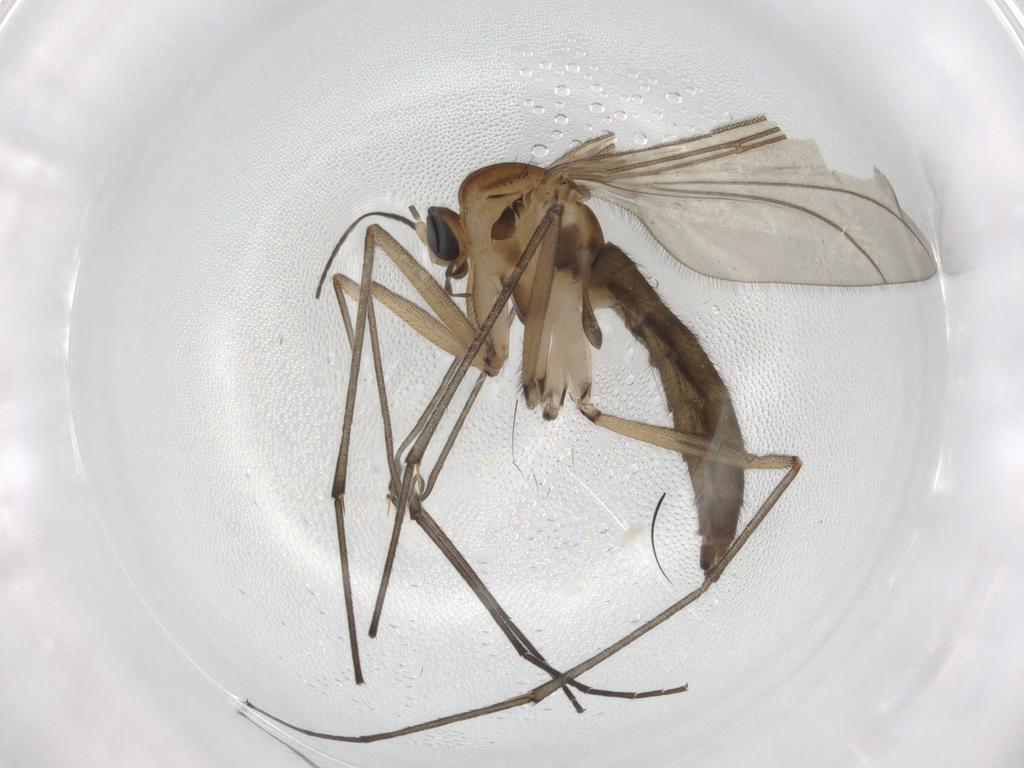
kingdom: Animalia
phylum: Arthropoda
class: Insecta
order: Diptera
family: Sciaridae
